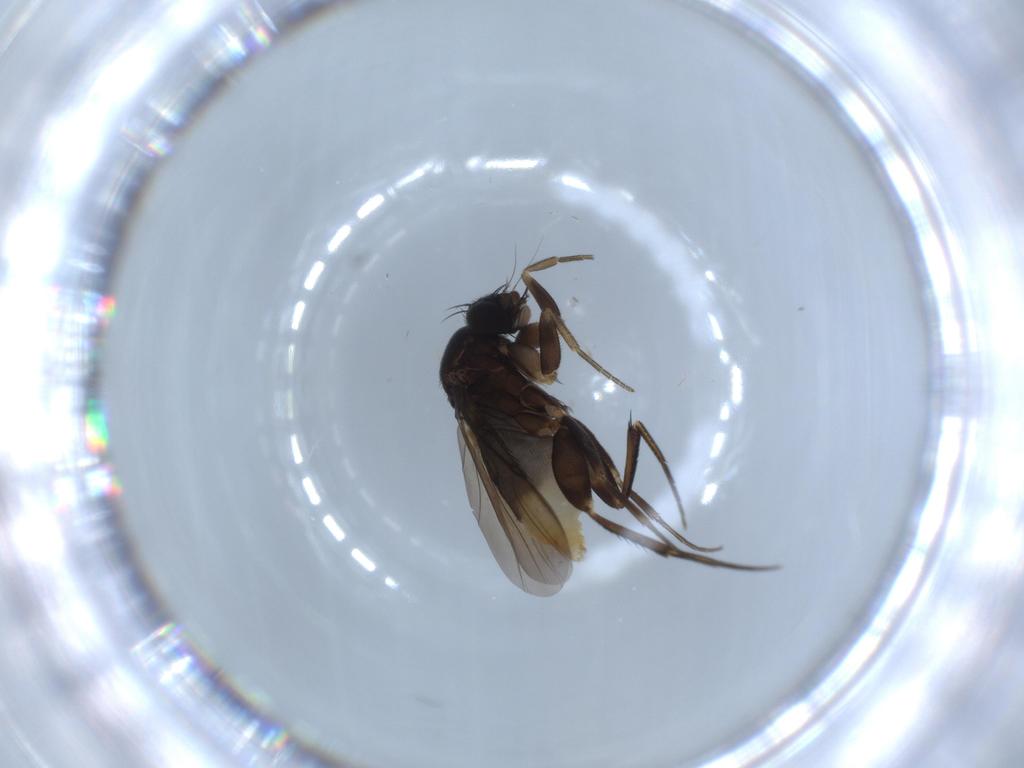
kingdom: Animalia
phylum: Arthropoda
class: Insecta
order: Diptera
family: Phoridae
